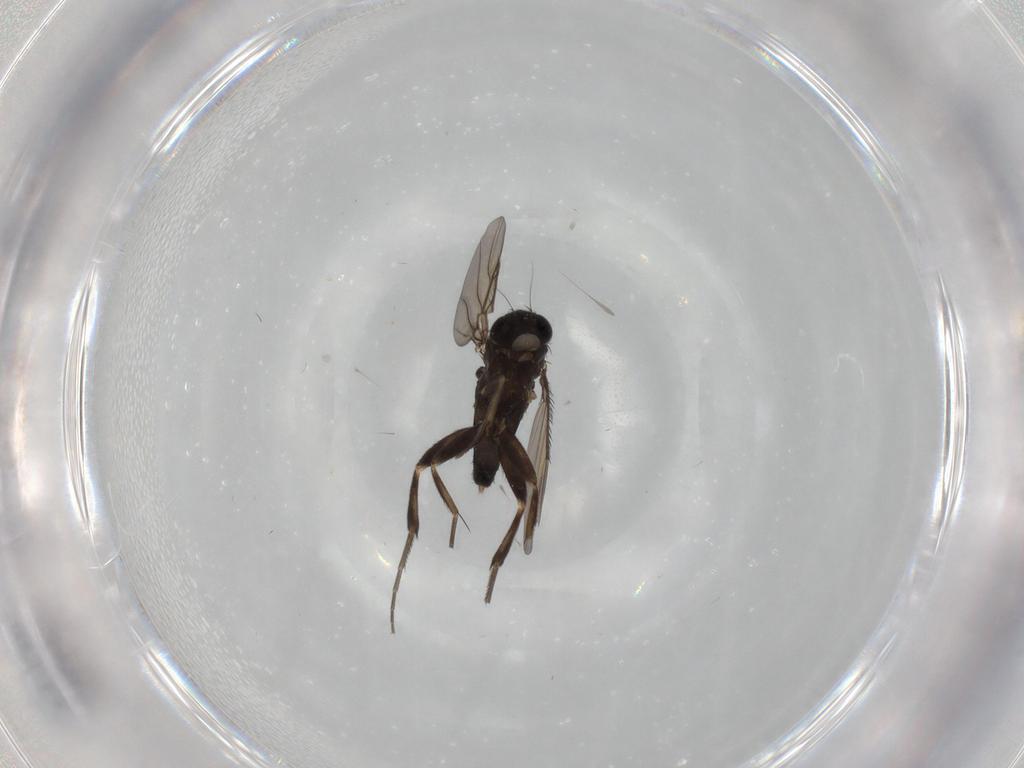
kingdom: Animalia
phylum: Arthropoda
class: Insecta
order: Diptera
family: Phoridae
